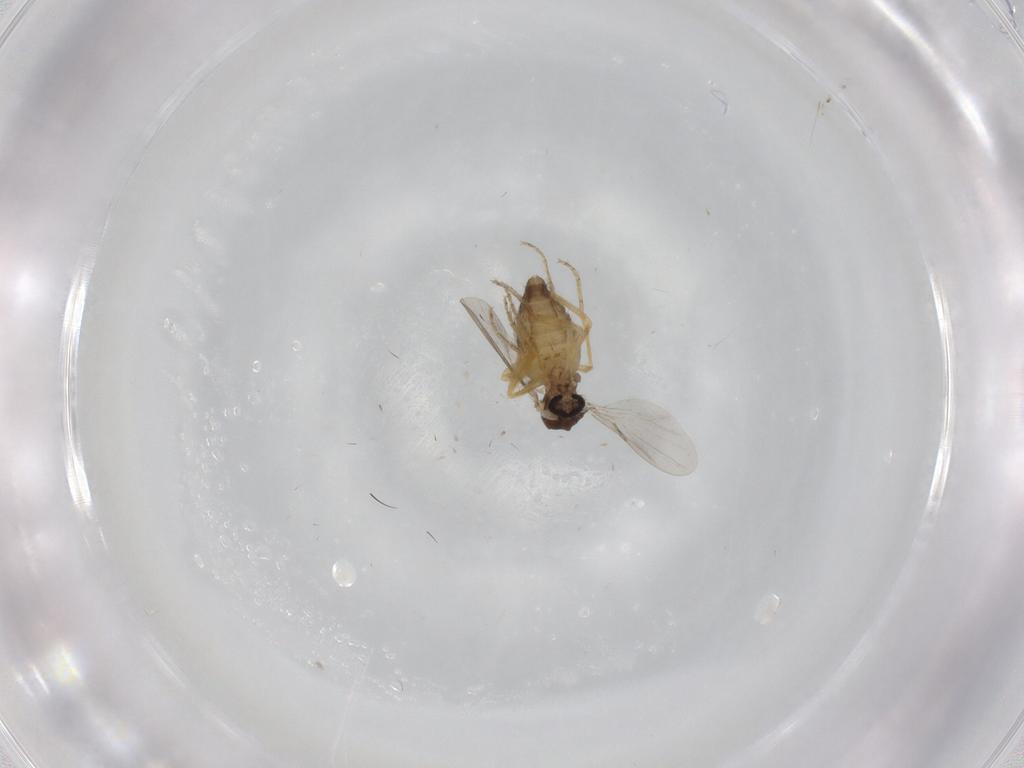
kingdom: Animalia
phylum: Arthropoda
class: Insecta
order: Diptera
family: Ceratopogonidae
